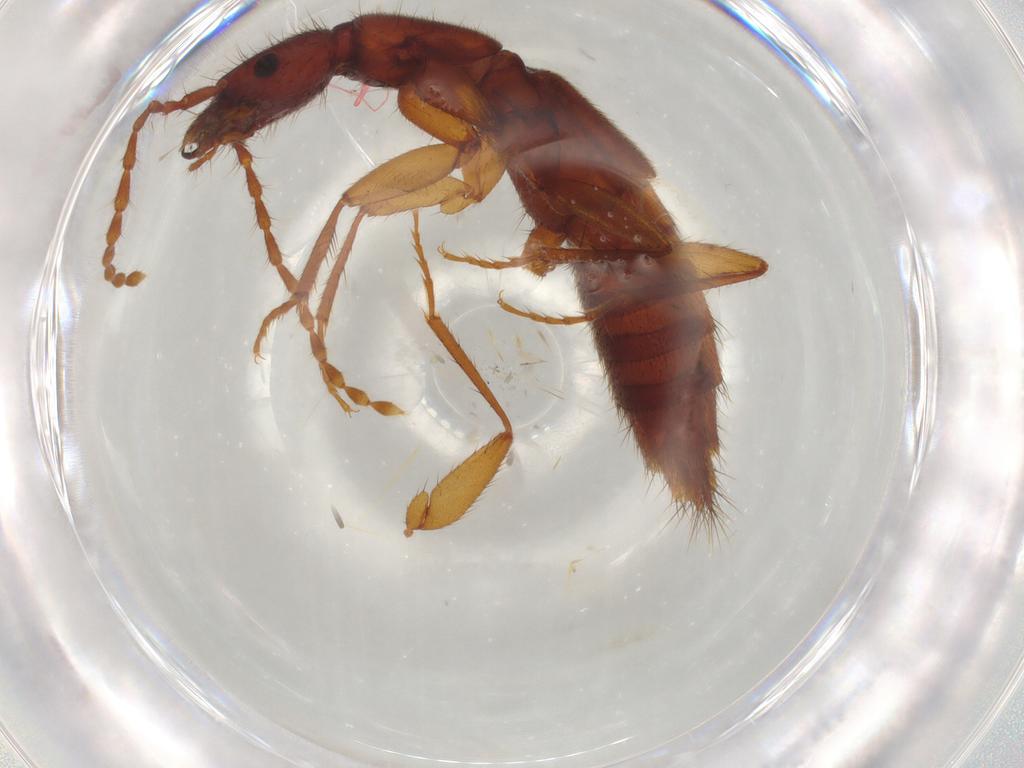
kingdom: Animalia
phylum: Arthropoda
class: Insecta
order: Coleoptera
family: Staphylinidae
